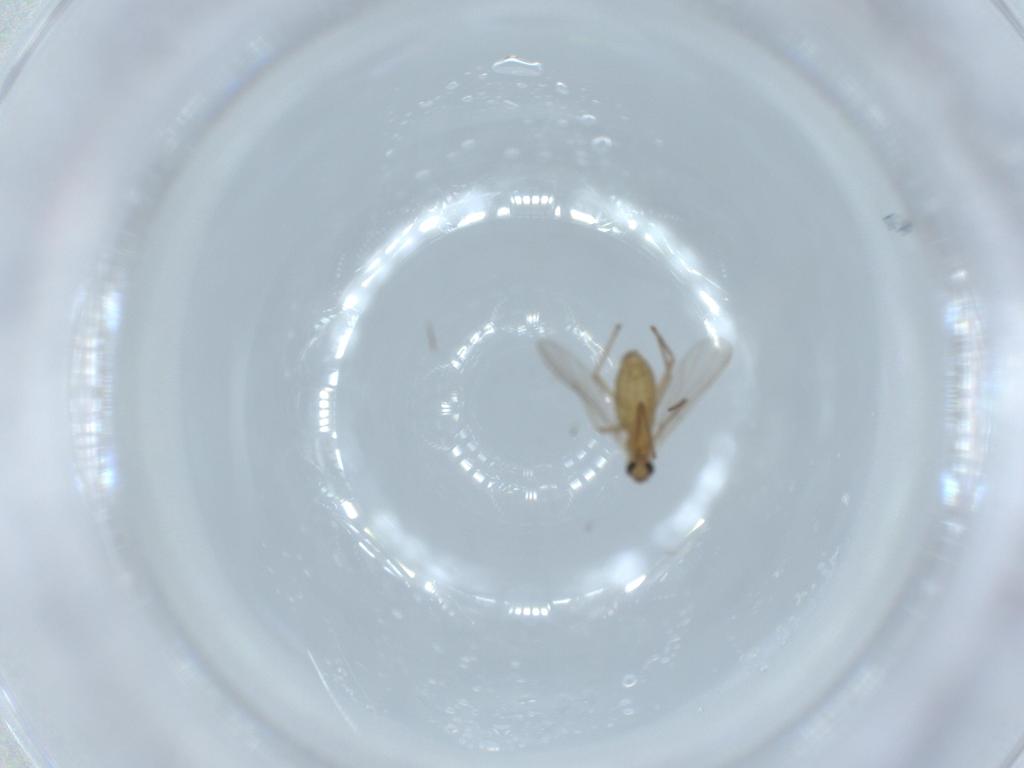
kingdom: Animalia
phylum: Arthropoda
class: Insecta
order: Diptera
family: Chironomidae
